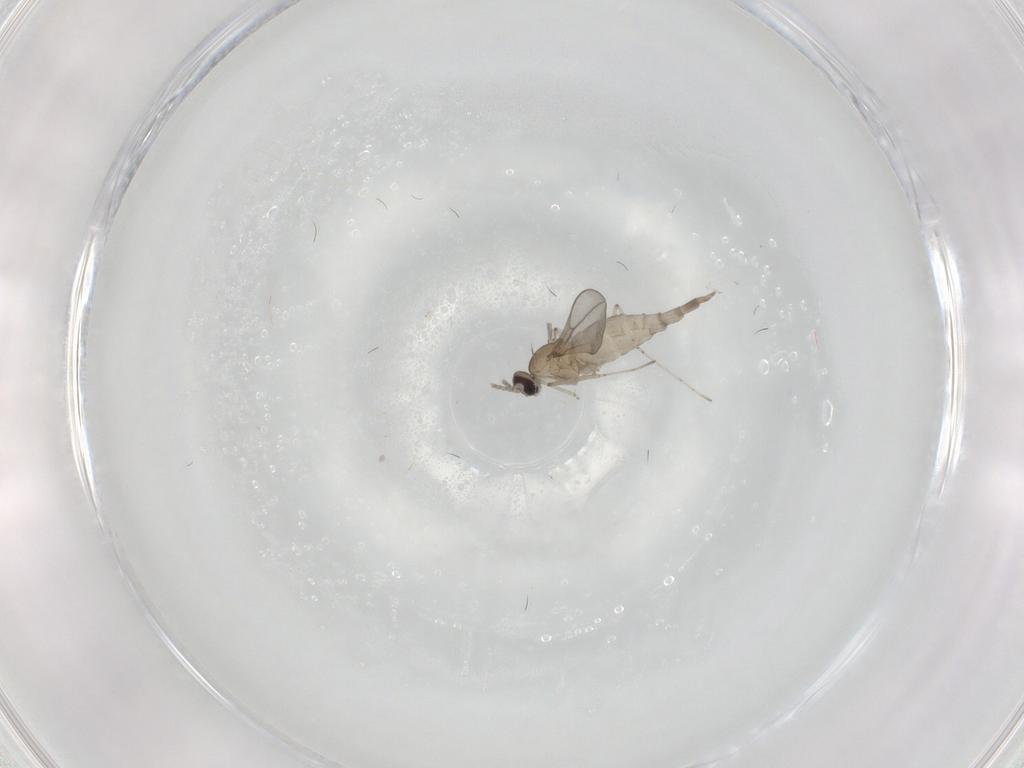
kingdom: Animalia
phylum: Arthropoda
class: Insecta
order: Diptera
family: Cecidomyiidae
